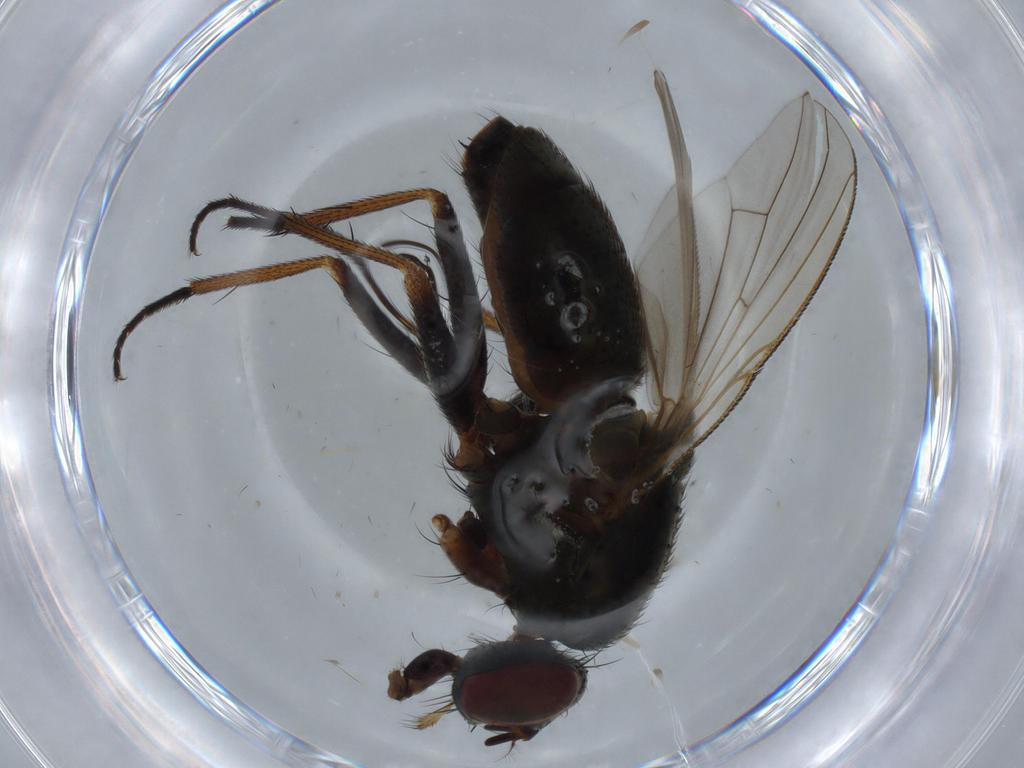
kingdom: Animalia
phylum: Arthropoda
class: Insecta
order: Diptera
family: Muscidae
